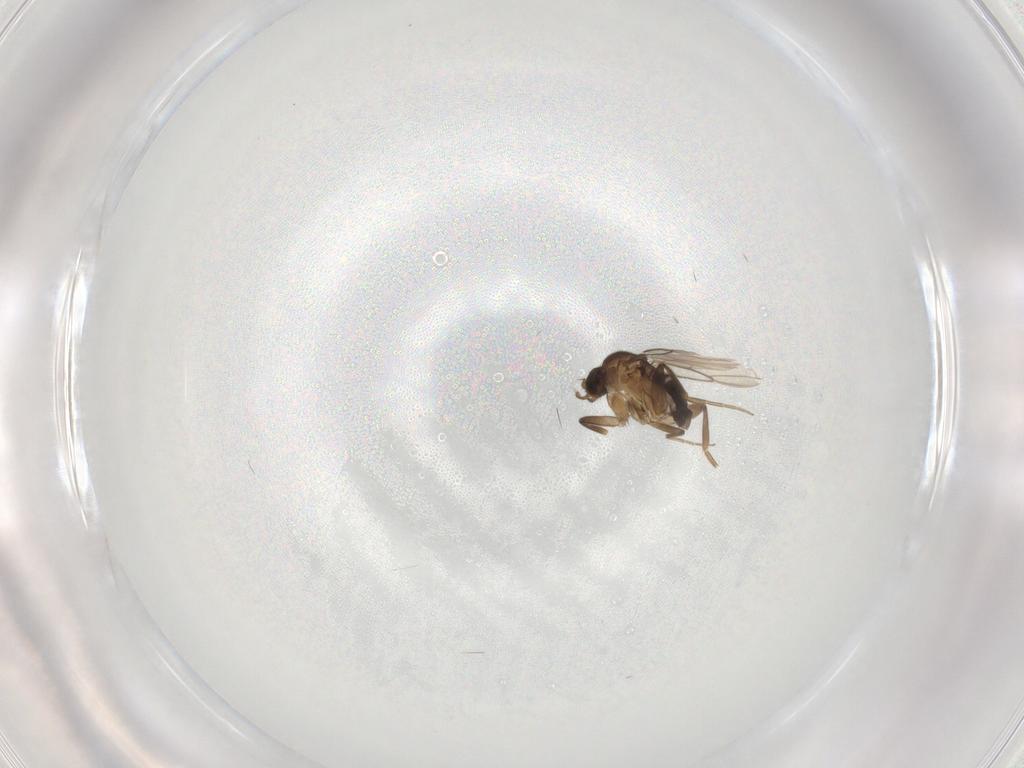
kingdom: Animalia
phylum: Arthropoda
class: Insecta
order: Diptera
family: Phoridae
